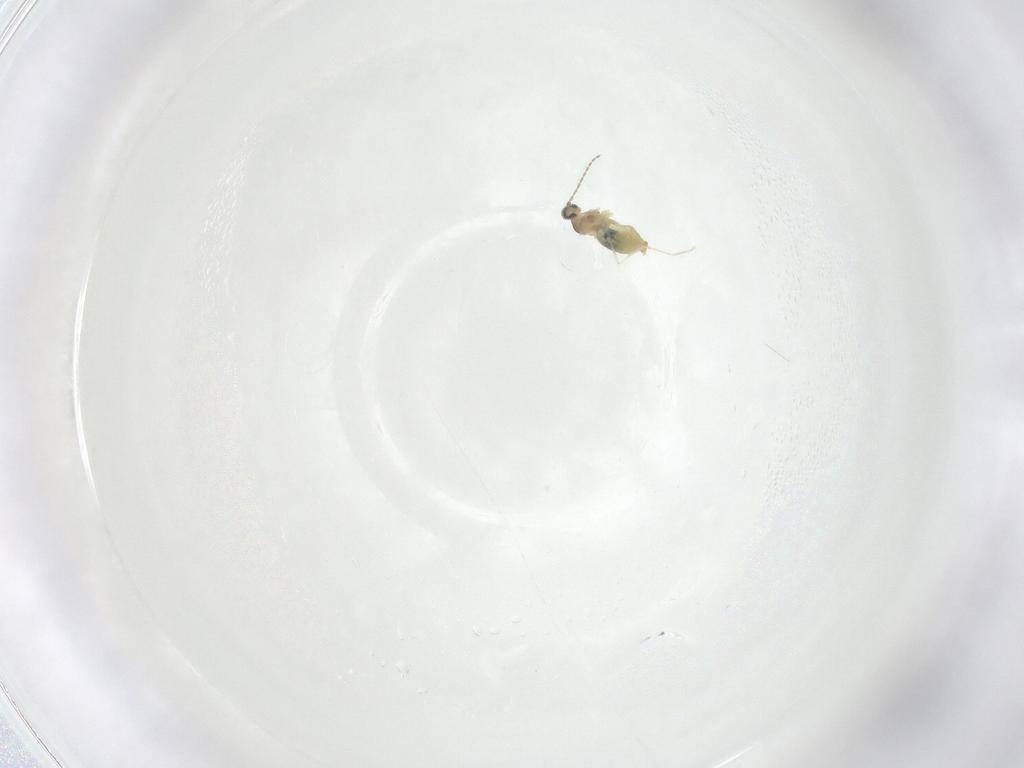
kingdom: Animalia
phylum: Arthropoda
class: Insecta
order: Diptera
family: Cecidomyiidae
